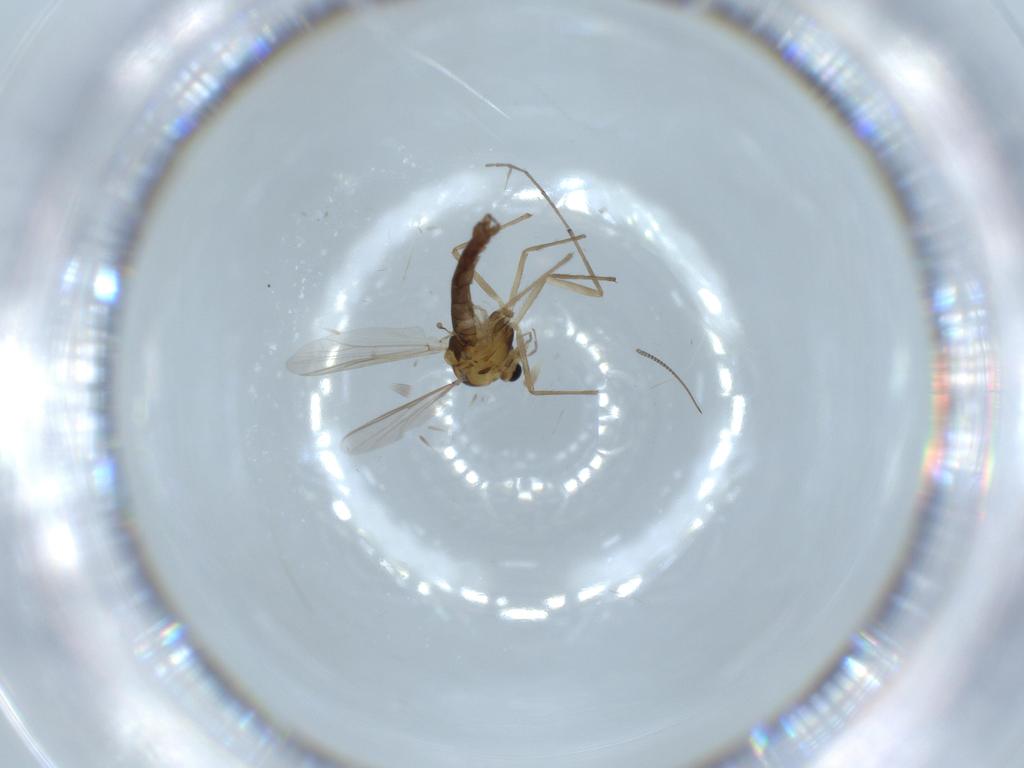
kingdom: Animalia
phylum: Arthropoda
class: Insecta
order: Diptera
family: Chironomidae
